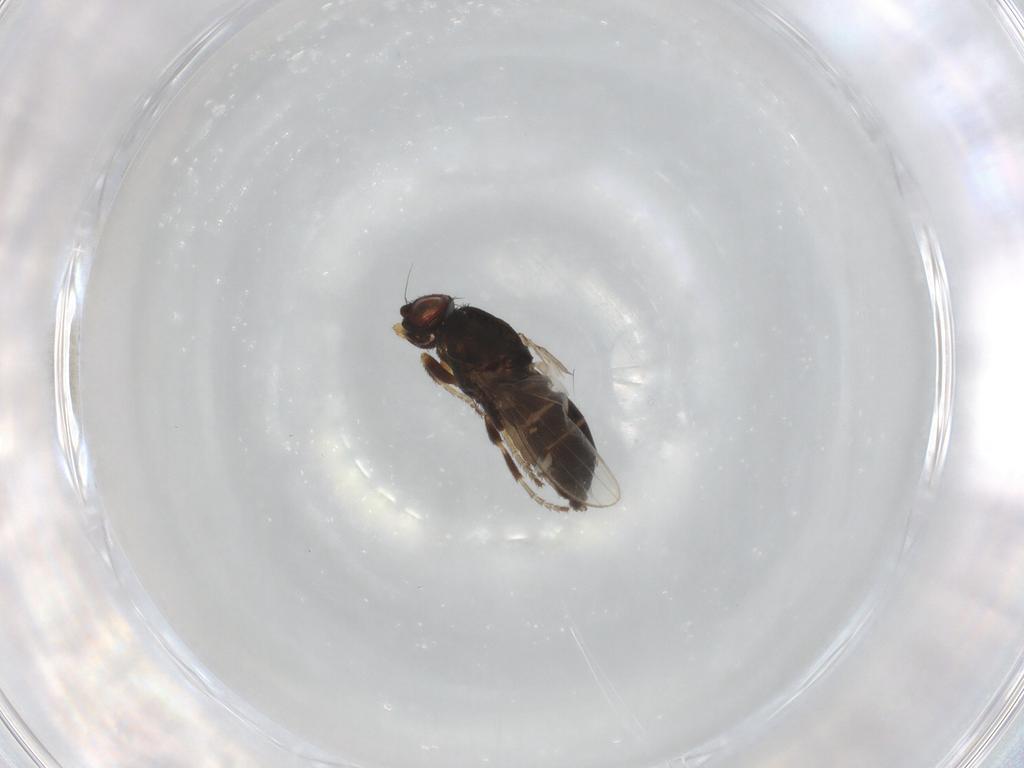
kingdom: Animalia
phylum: Arthropoda
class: Insecta
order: Diptera
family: Milichiidae
